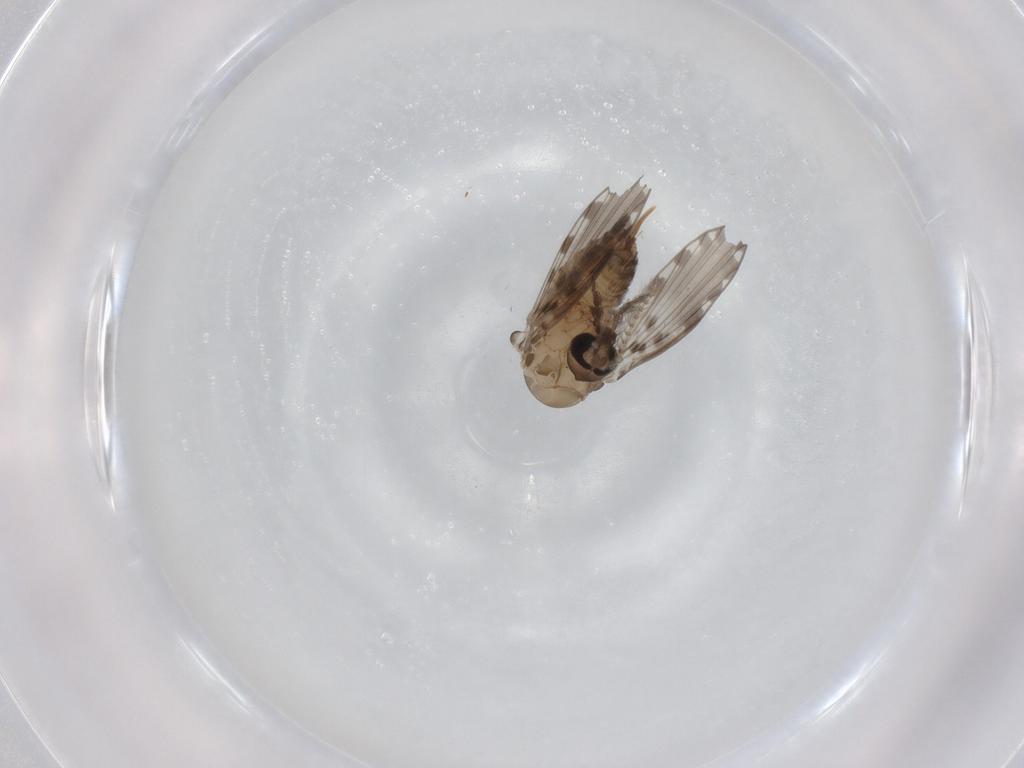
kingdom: Animalia
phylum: Arthropoda
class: Insecta
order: Diptera
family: Psychodidae
